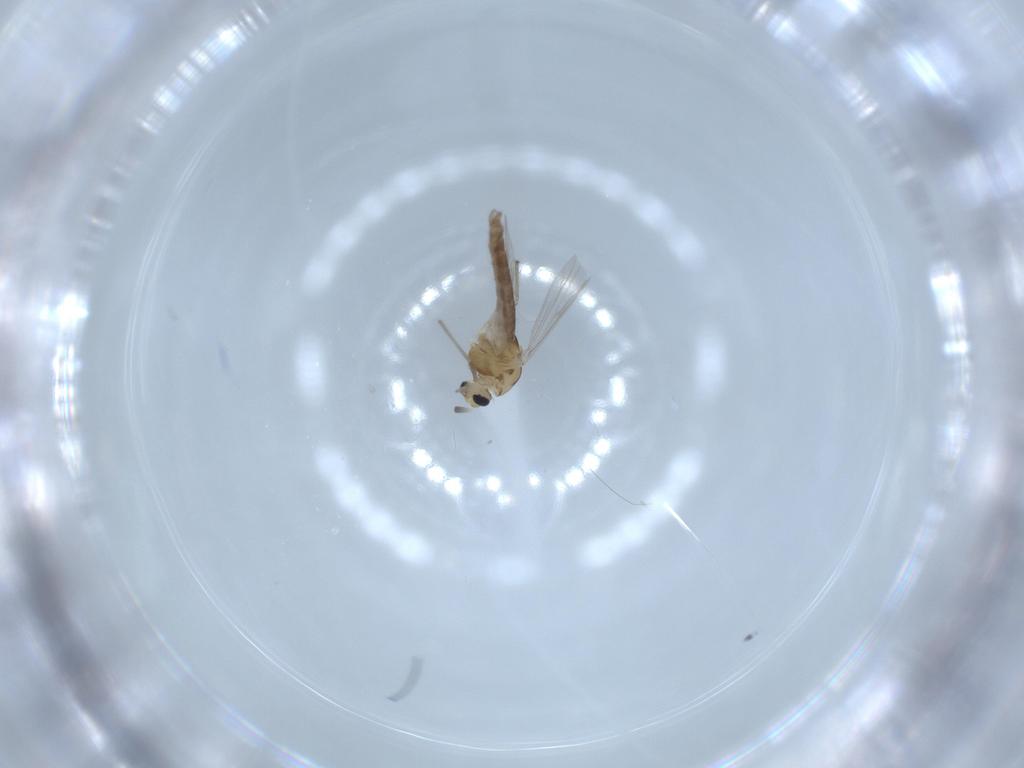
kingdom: Animalia
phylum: Arthropoda
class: Insecta
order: Diptera
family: Chironomidae
